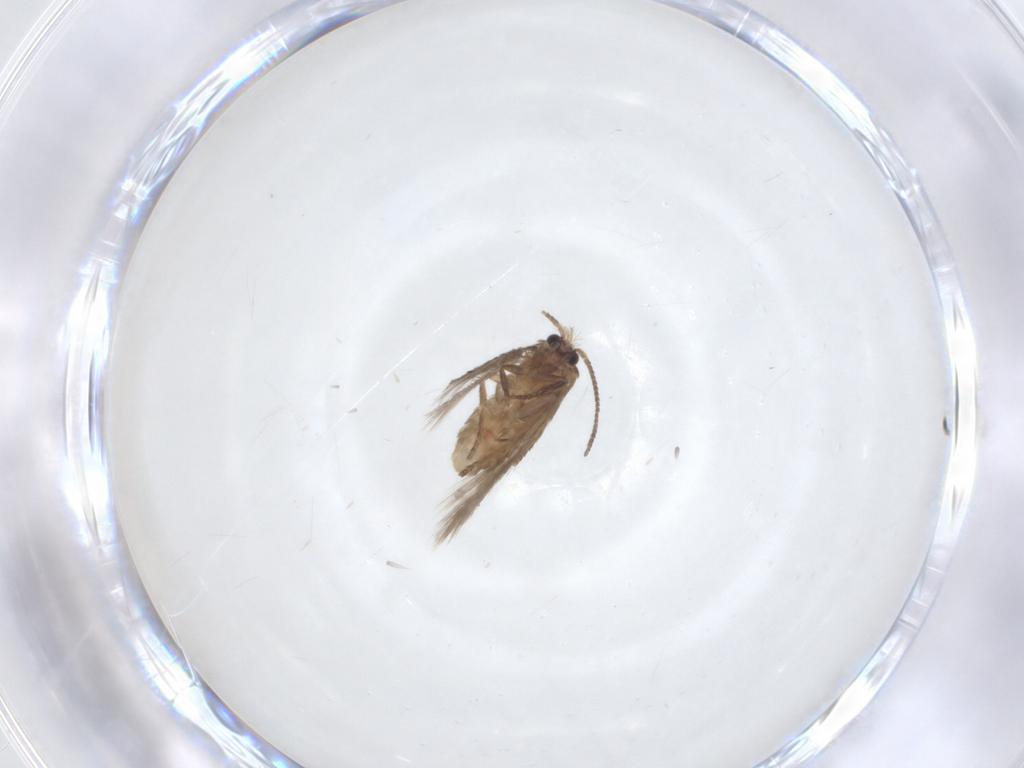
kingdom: Animalia
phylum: Arthropoda
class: Insecta
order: Lepidoptera
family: Nepticulidae
